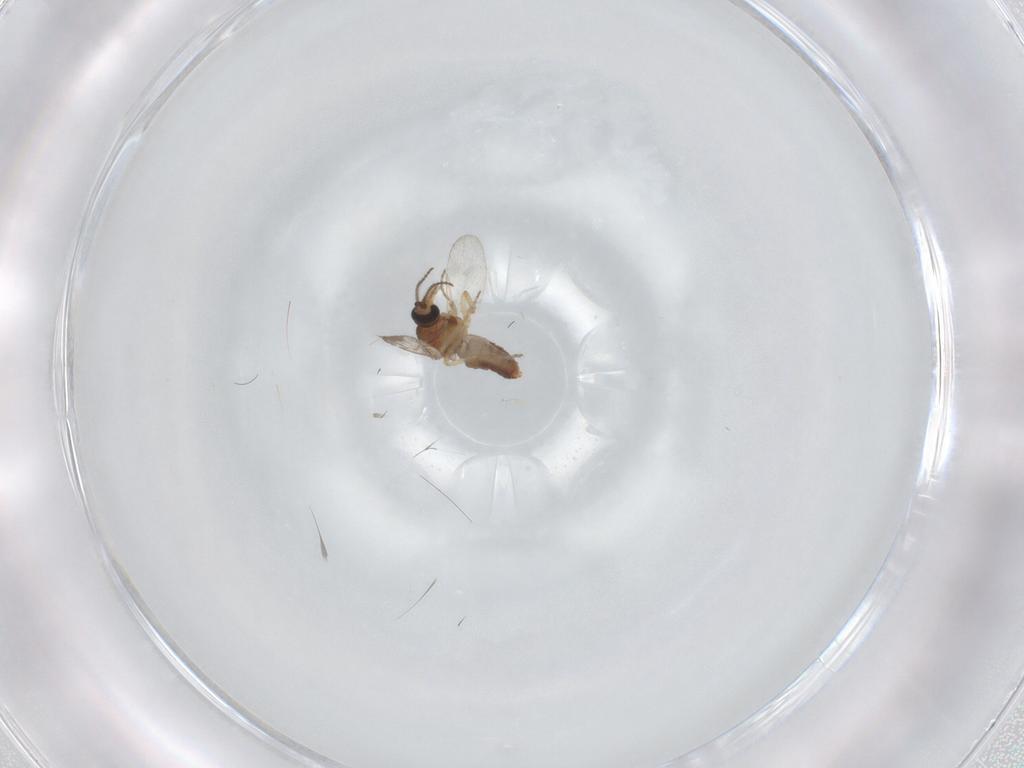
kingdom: Animalia
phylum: Arthropoda
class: Insecta
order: Diptera
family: Ceratopogonidae
